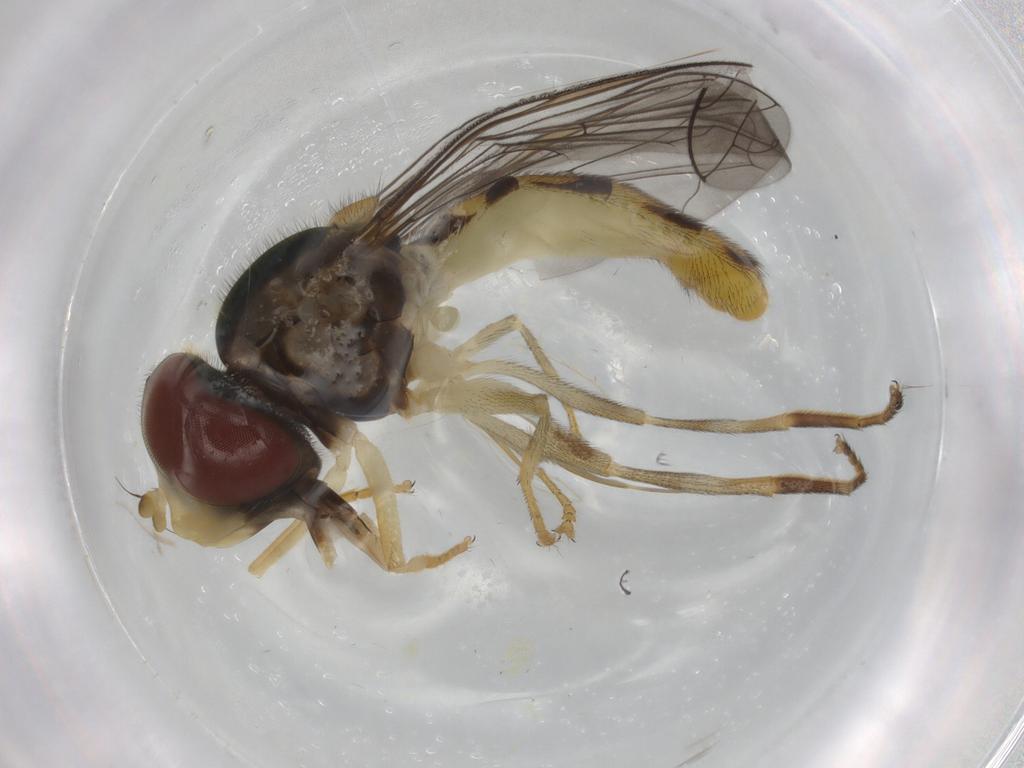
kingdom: Animalia
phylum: Arthropoda
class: Insecta
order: Diptera
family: Syrphidae
